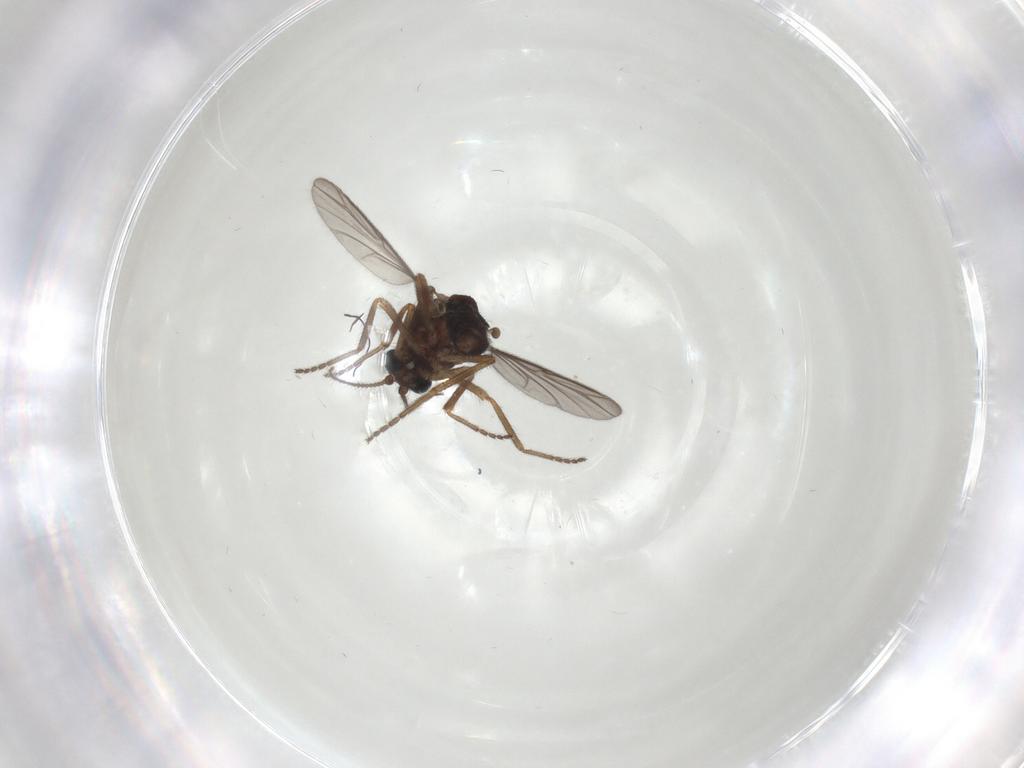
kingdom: Animalia
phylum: Arthropoda
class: Insecta
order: Diptera
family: Ceratopogonidae
